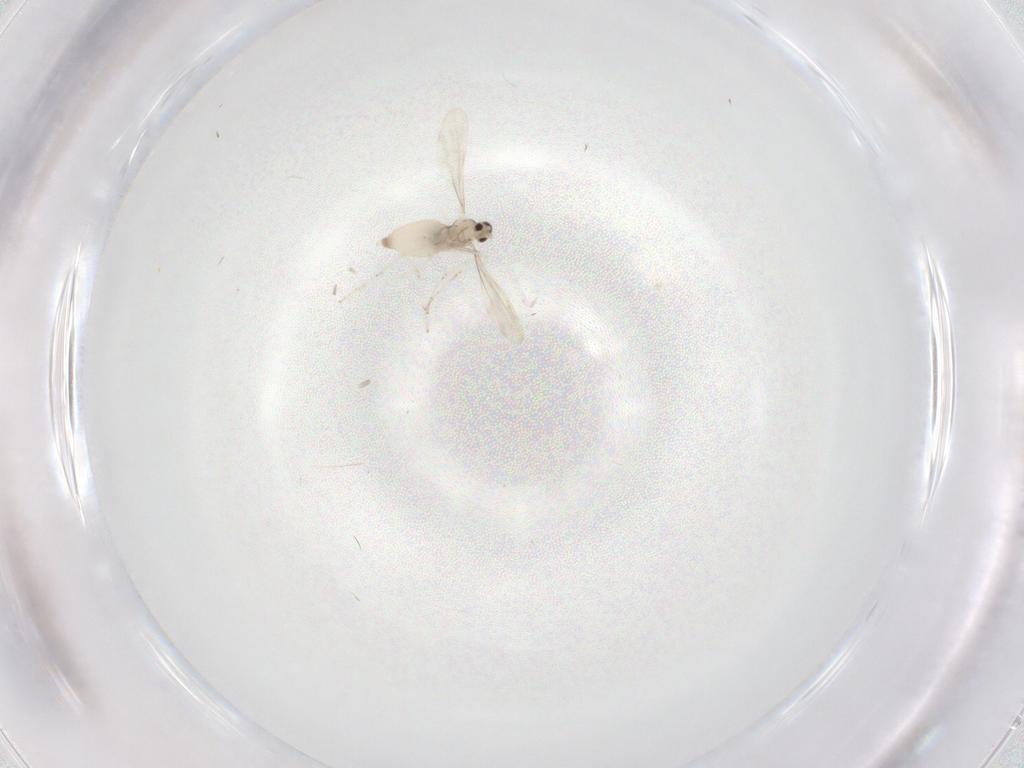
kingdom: Animalia
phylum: Arthropoda
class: Insecta
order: Diptera
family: Cecidomyiidae
